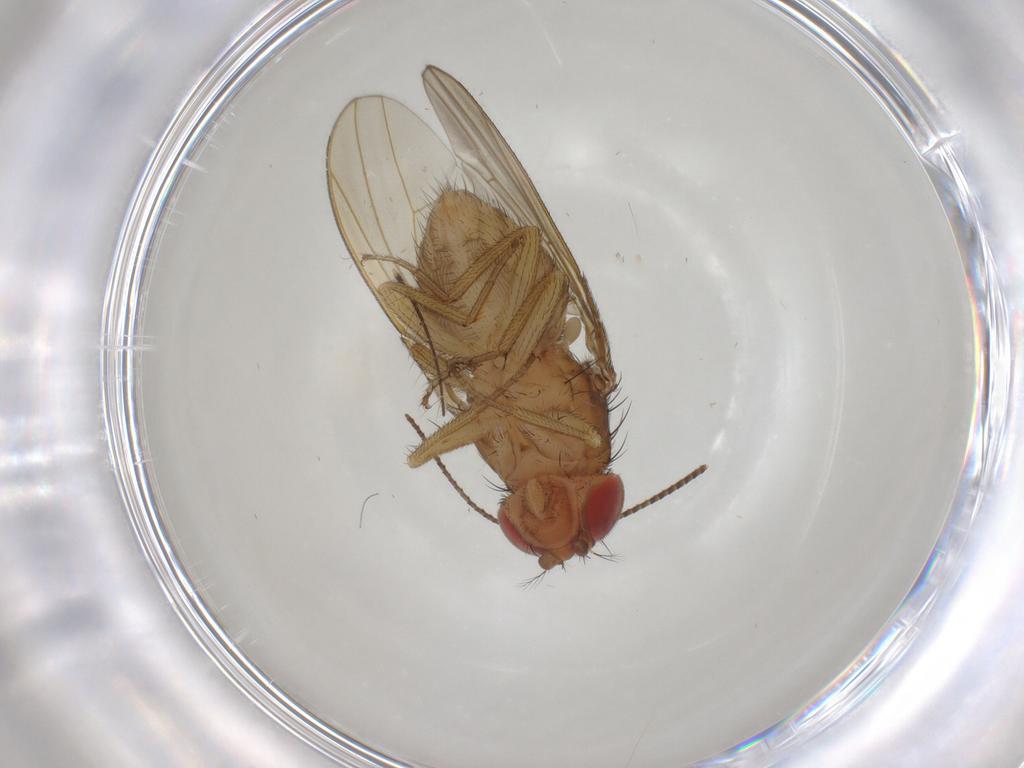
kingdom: Animalia
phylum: Arthropoda
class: Insecta
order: Diptera
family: Drosophilidae
